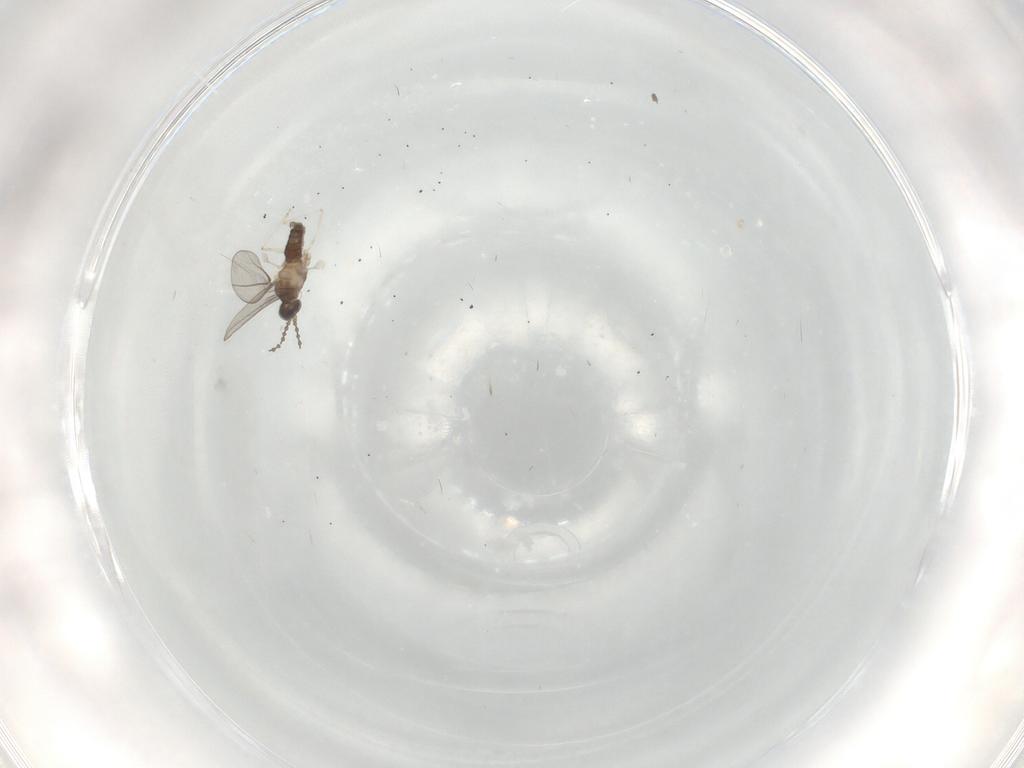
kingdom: Animalia
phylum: Arthropoda
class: Insecta
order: Diptera
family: Cecidomyiidae
